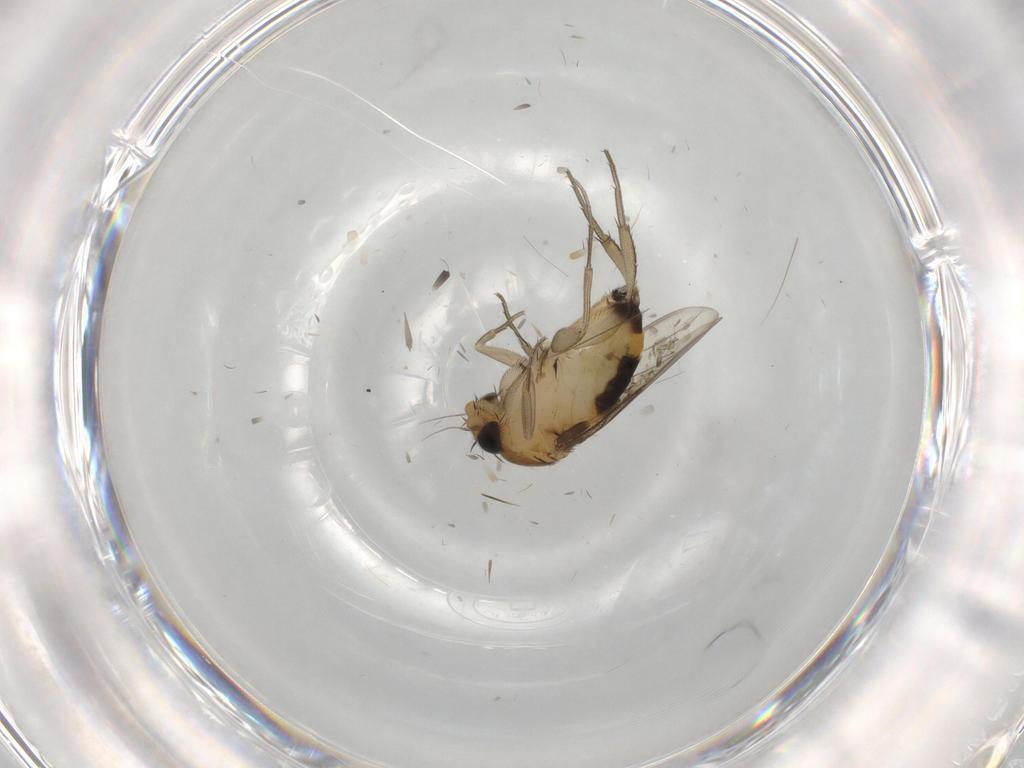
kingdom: Animalia
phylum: Arthropoda
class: Insecta
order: Diptera
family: Phoridae
